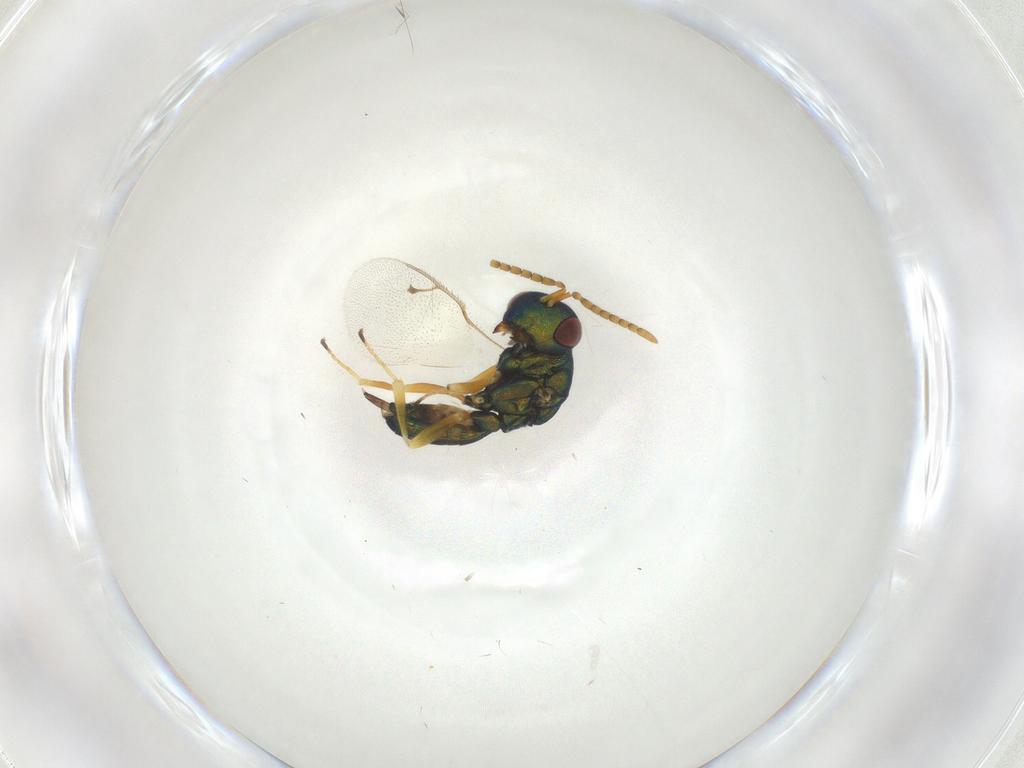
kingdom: Animalia
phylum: Arthropoda
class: Insecta
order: Hymenoptera
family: Pteromalidae
